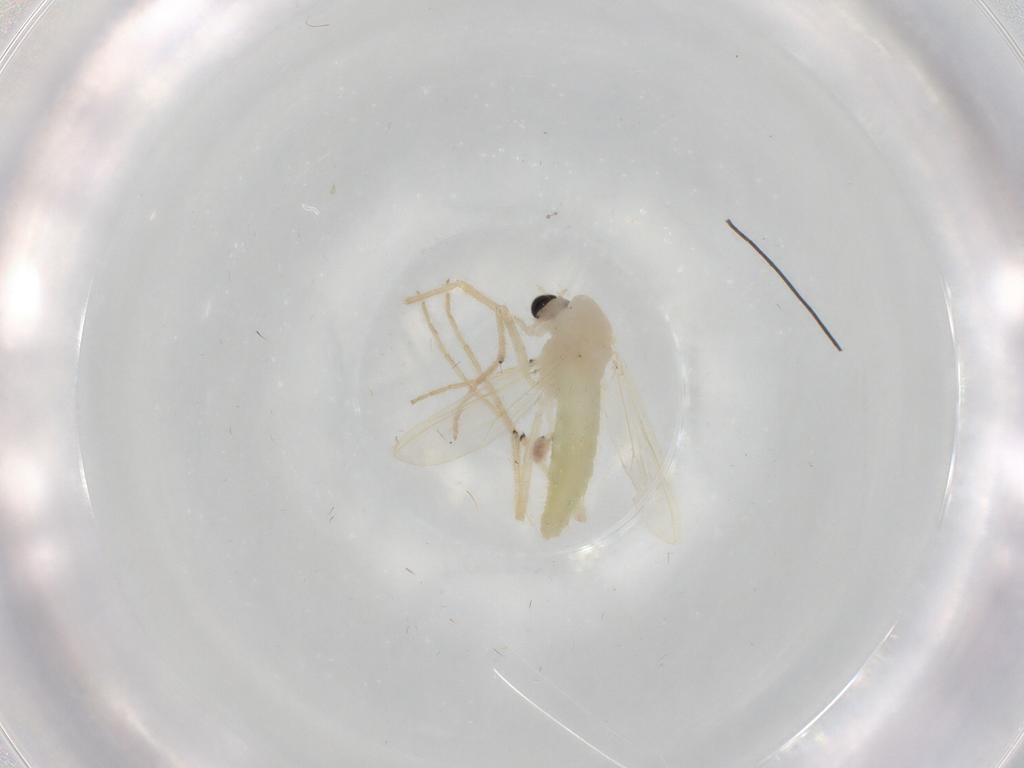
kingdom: Animalia
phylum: Arthropoda
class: Insecta
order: Diptera
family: Chironomidae
